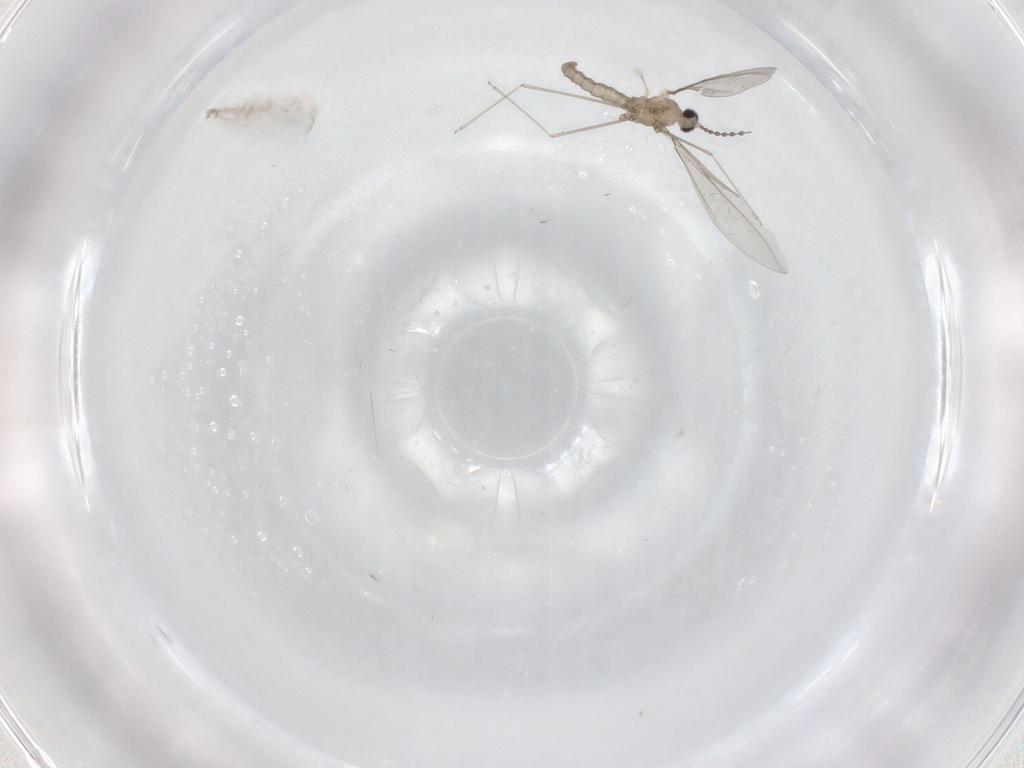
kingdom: Animalia
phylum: Arthropoda
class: Insecta
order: Diptera
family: Cecidomyiidae
